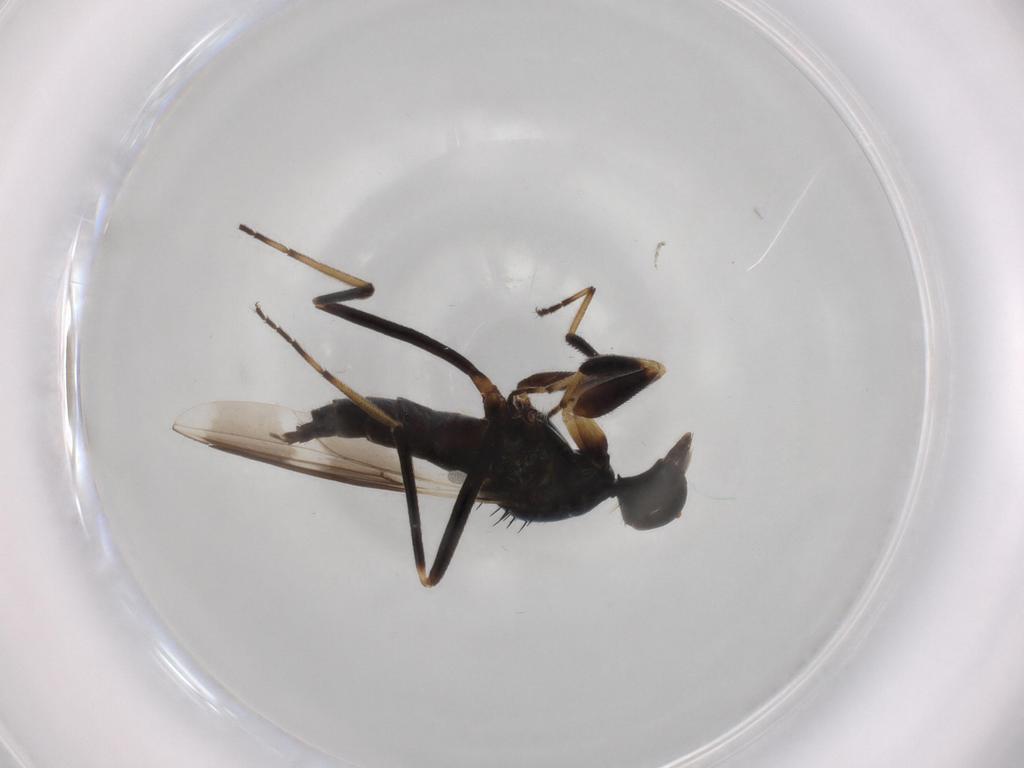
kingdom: Animalia
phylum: Arthropoda
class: Insecta
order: Diptera
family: Hybotidae
